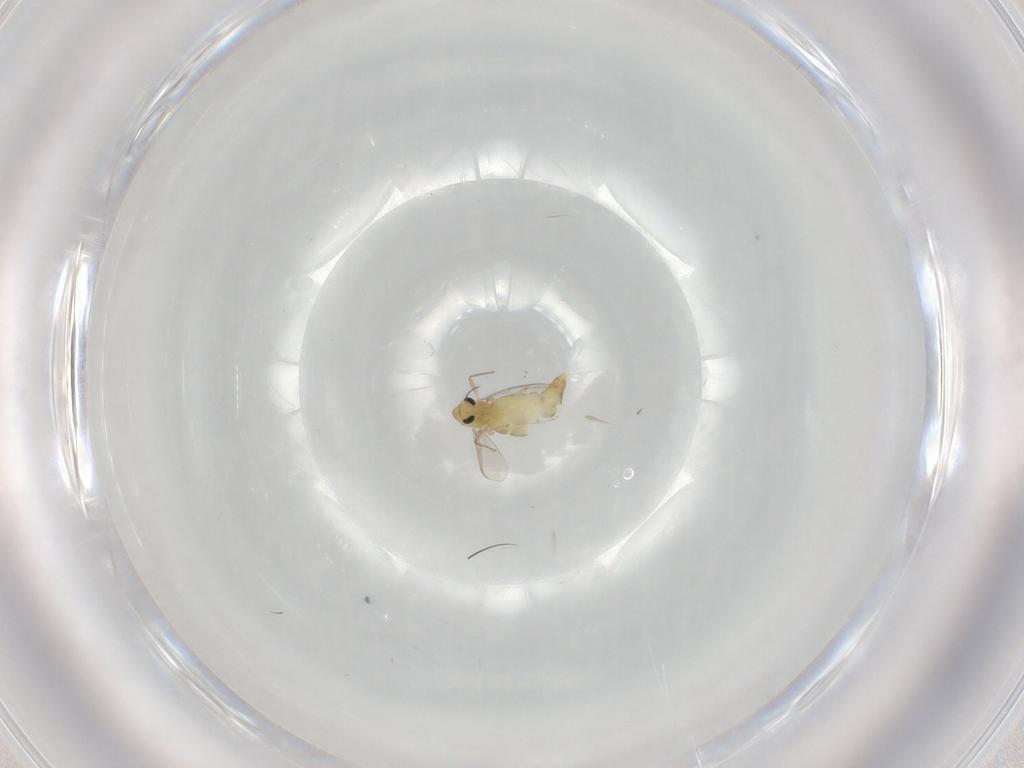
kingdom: Animalia
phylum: Arthropoda
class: Insecta
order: Diptera
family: Chironomidae
